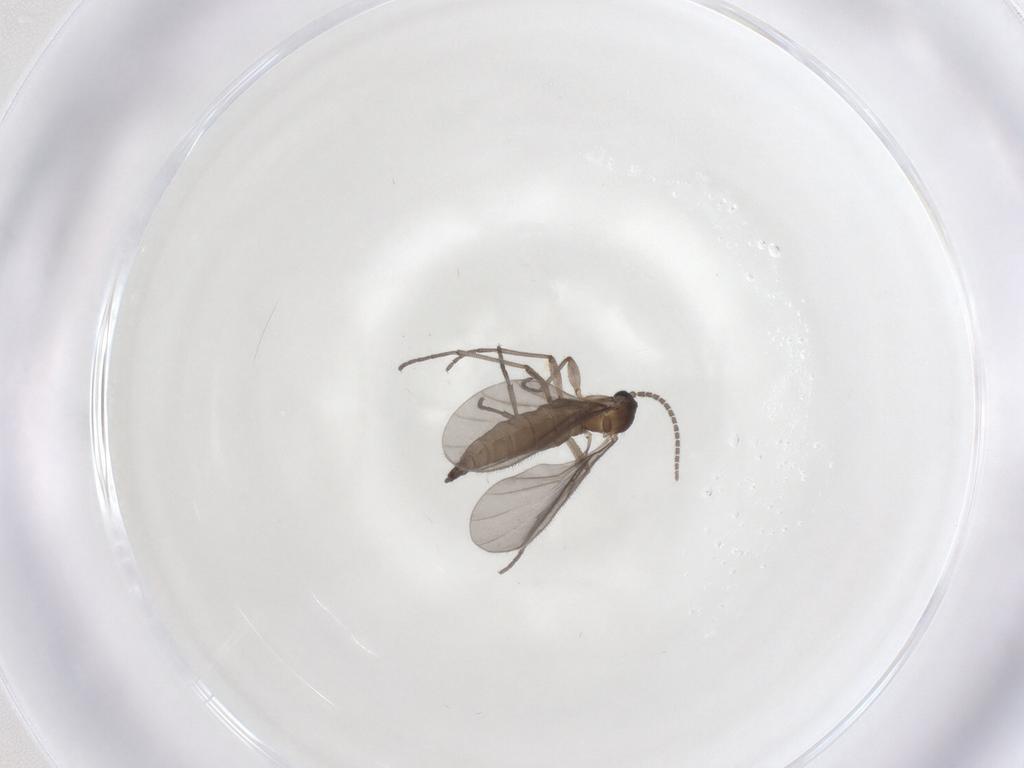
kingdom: Animalia
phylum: Arthropoda
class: Insecta
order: Diptera
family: Sciaridae
